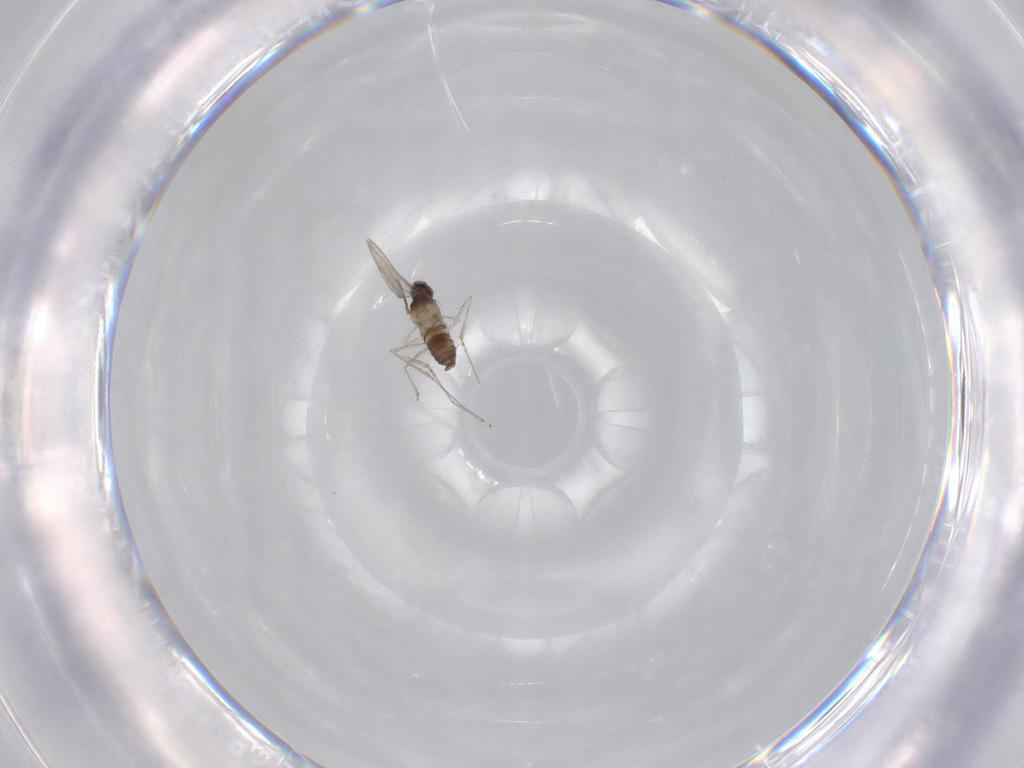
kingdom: Animalia
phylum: Arthropoda
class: Insecta
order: Diptera
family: Cecidomyiidae
